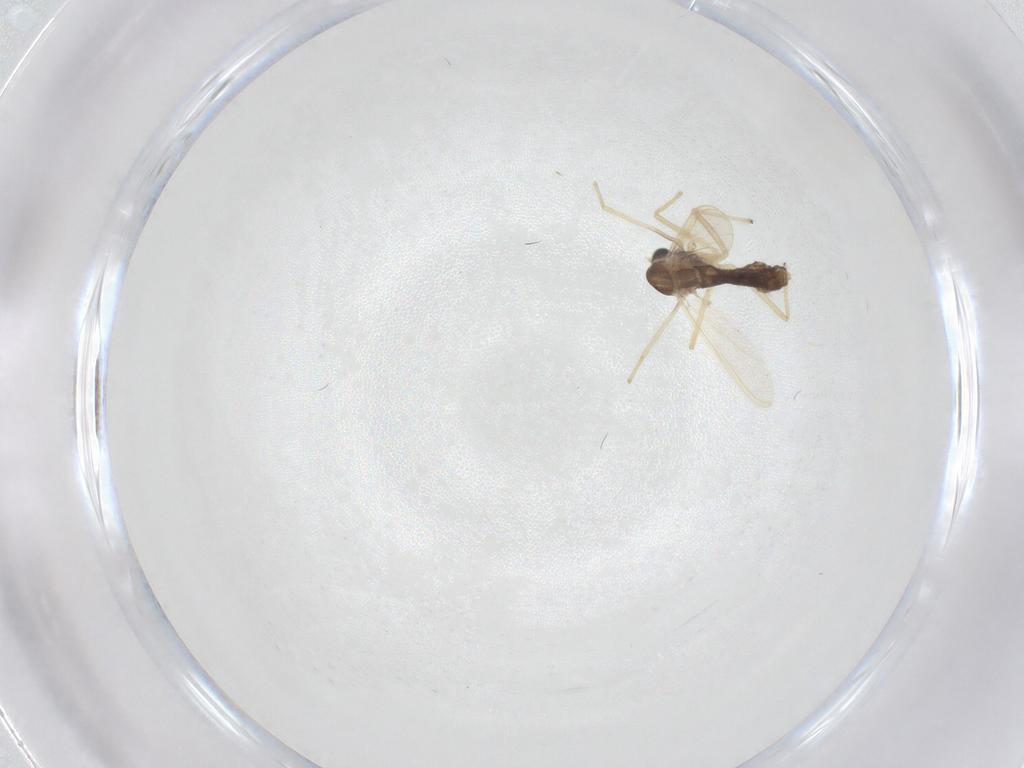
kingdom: Animalia
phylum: Arthropoda
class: Insecta
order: Diptera
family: Chironomidae
